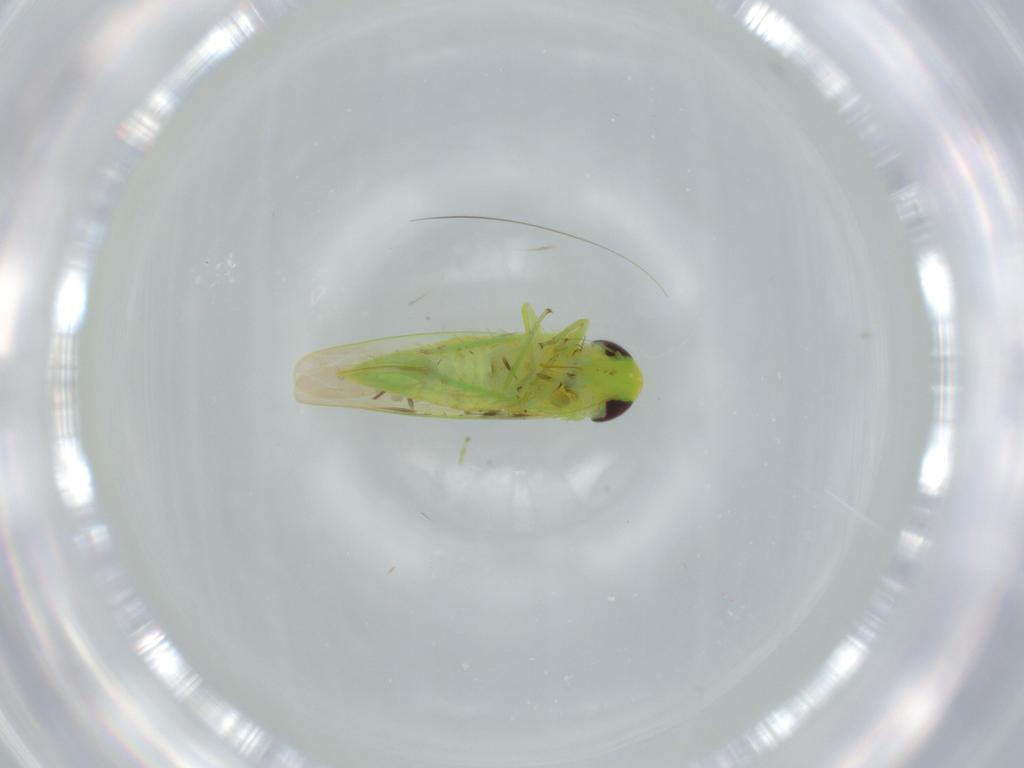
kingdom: Animalia
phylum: Arthropoda
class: Insecta
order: Hemiptera
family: Cicadellidae
